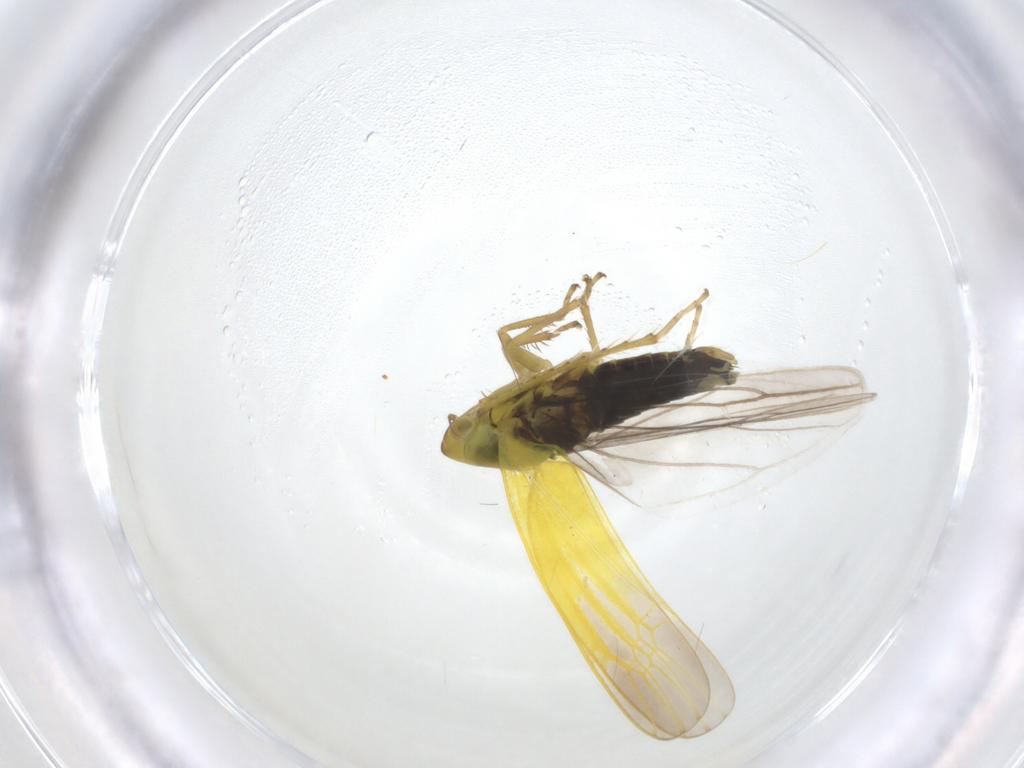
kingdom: Animalia
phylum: Arthropoda
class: Insecta
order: Hemiptera
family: Cicadellidae
